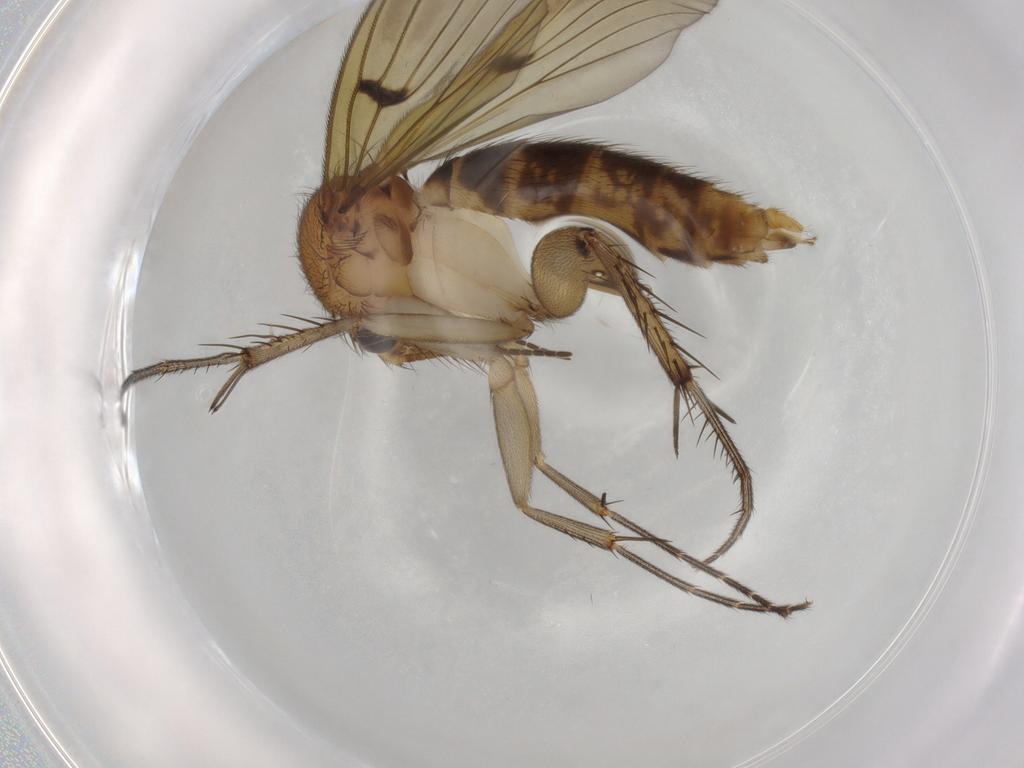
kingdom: Animalia
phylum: Arthropoda
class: Insecta
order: Diptera
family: Mycetophilidae
